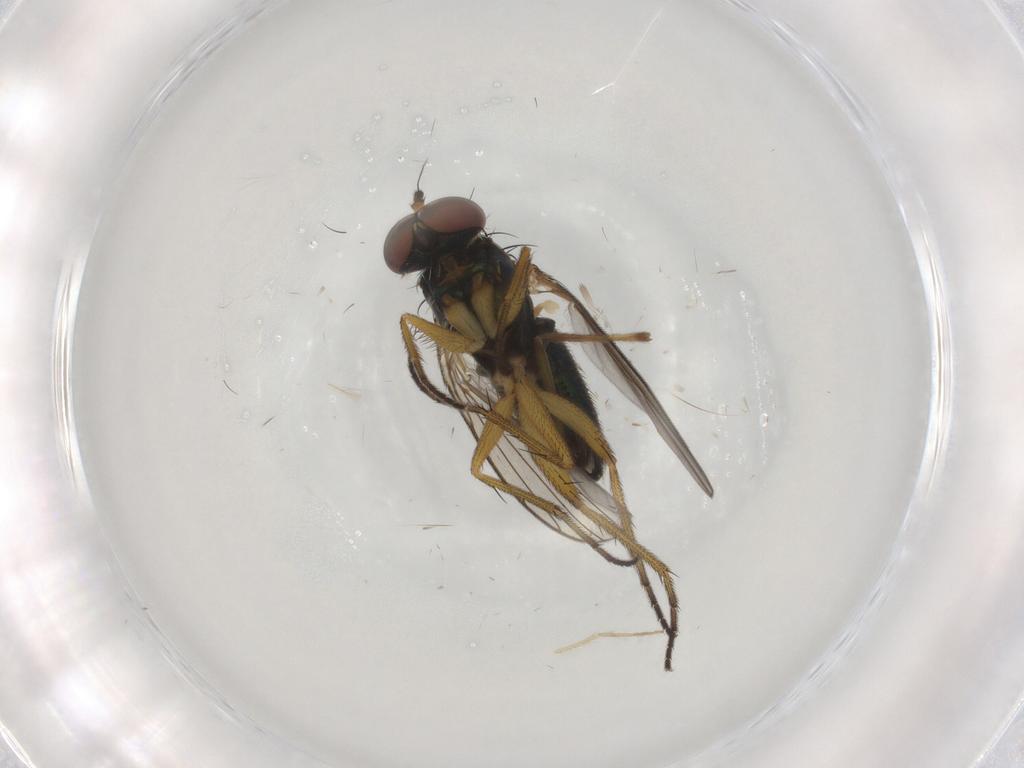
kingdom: Animalia
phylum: Arthropoda
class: Insecta
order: Diptera
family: Dolichopodidae
